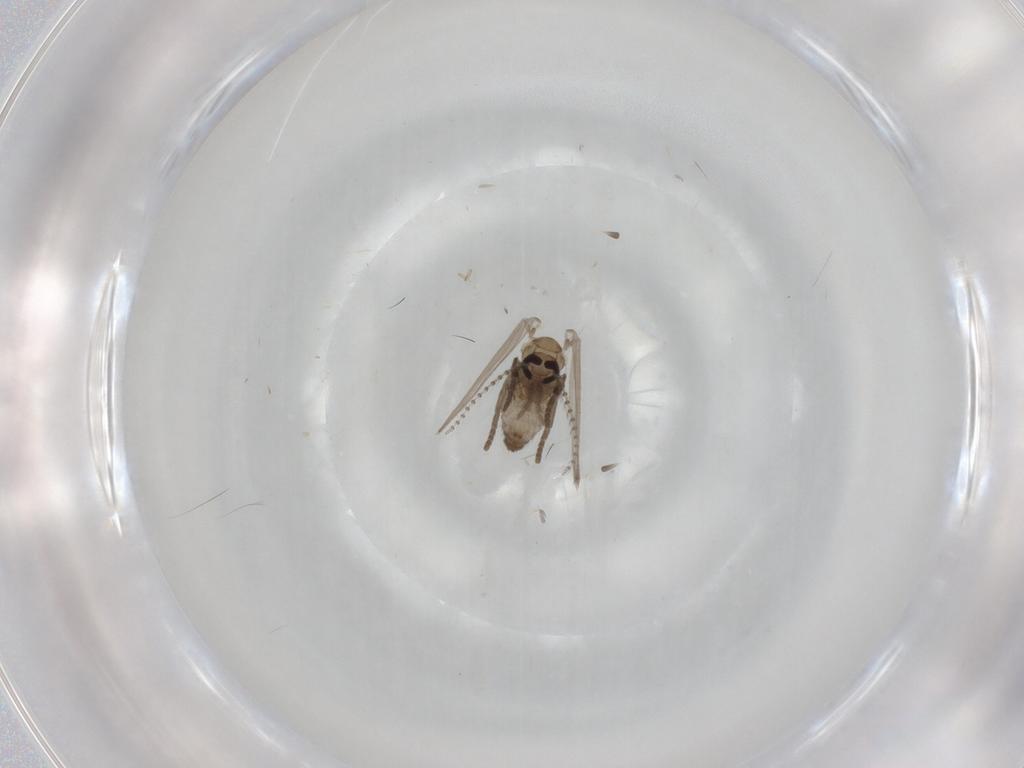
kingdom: Animalia
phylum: Arthropoda
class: Insecta
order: Diptera
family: Psychodidae
